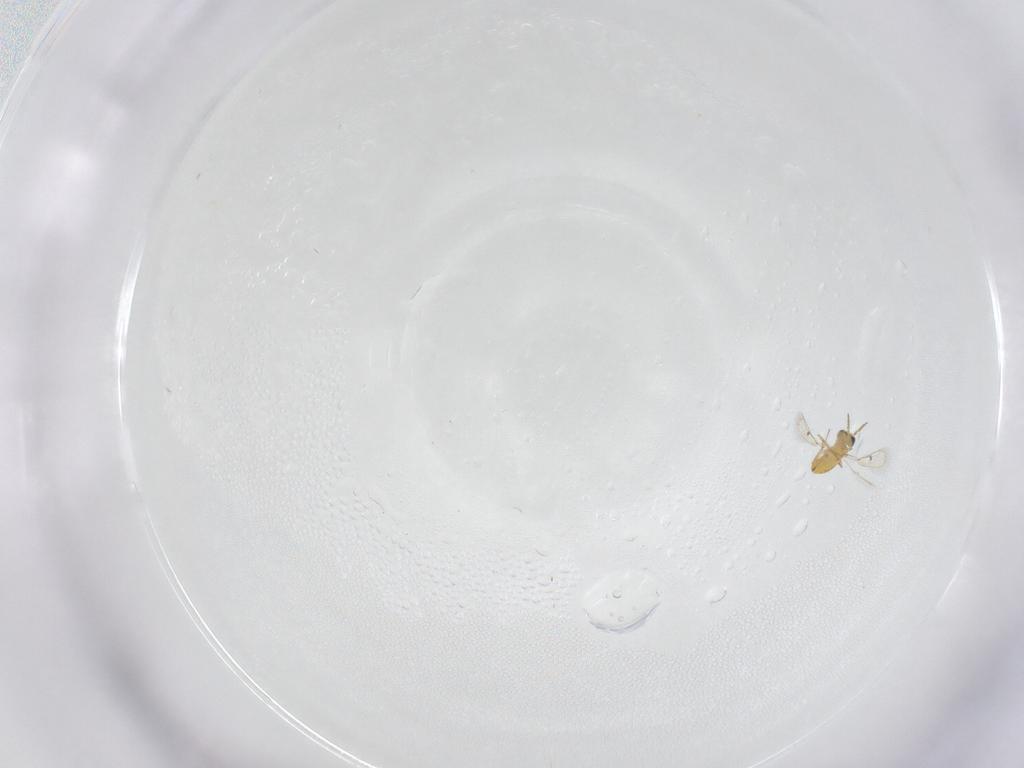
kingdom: Animalia
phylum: Arthropoda
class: Insecta
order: Hymenoptera
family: Trichogrammatidae
